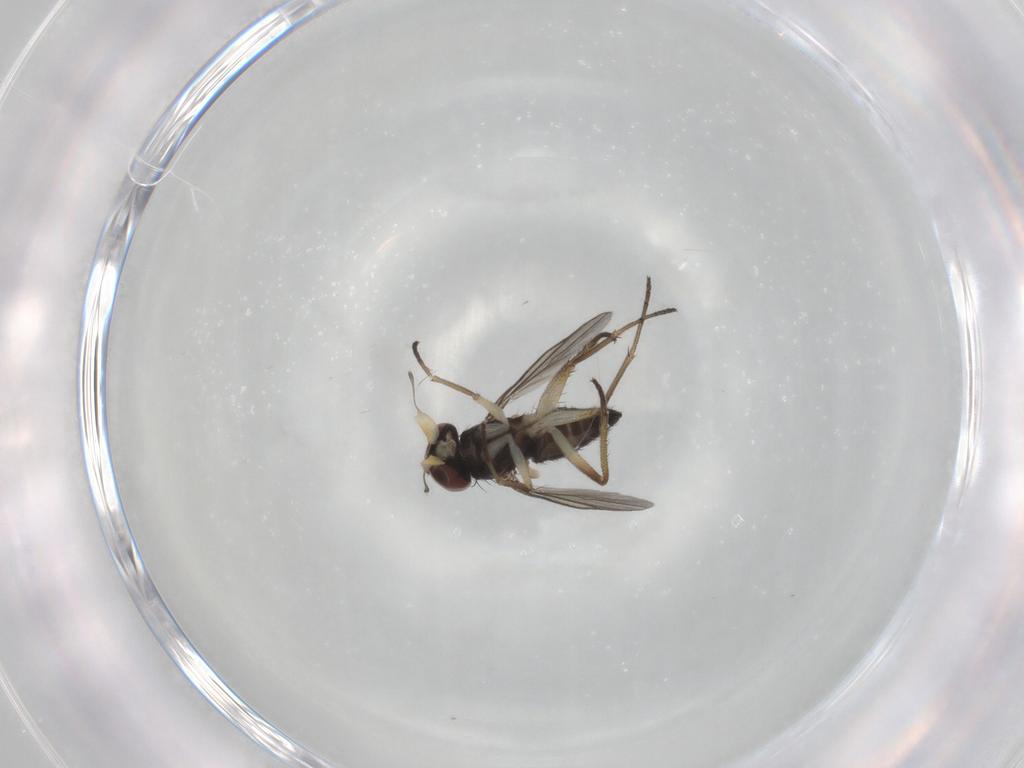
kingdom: Animalia
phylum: Arthropoda
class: Insecta
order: Diptera
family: Dolichopodidae
